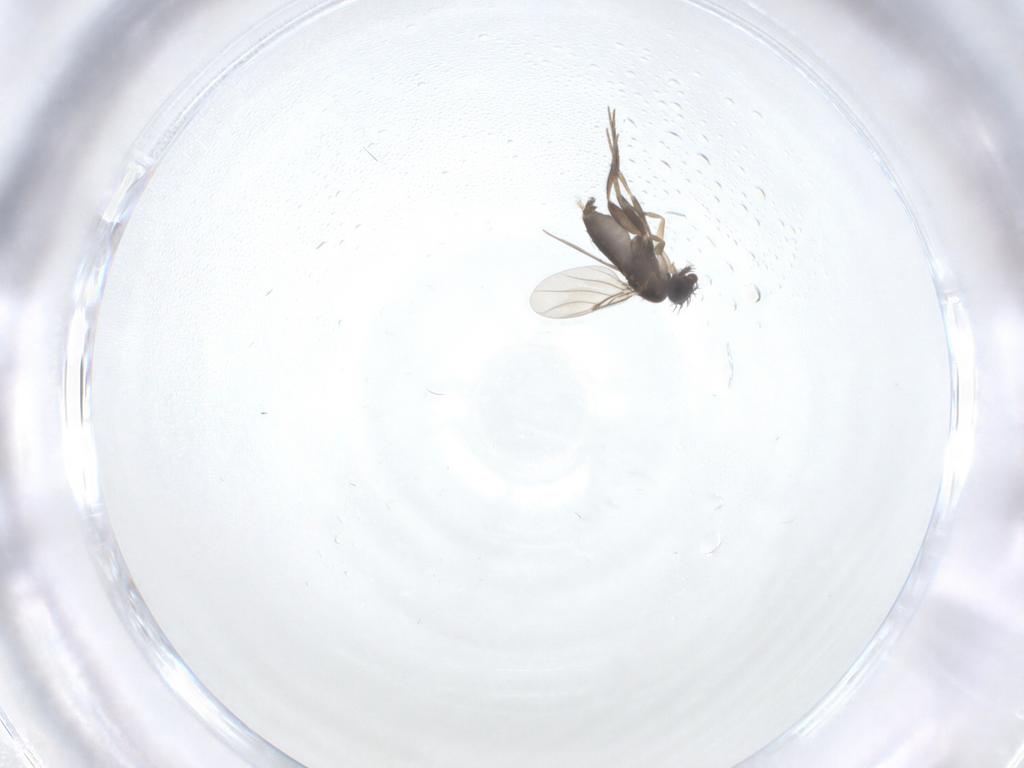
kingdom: Animalia
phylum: Arthropoda
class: Insecta
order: Diptera
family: Phoridae
